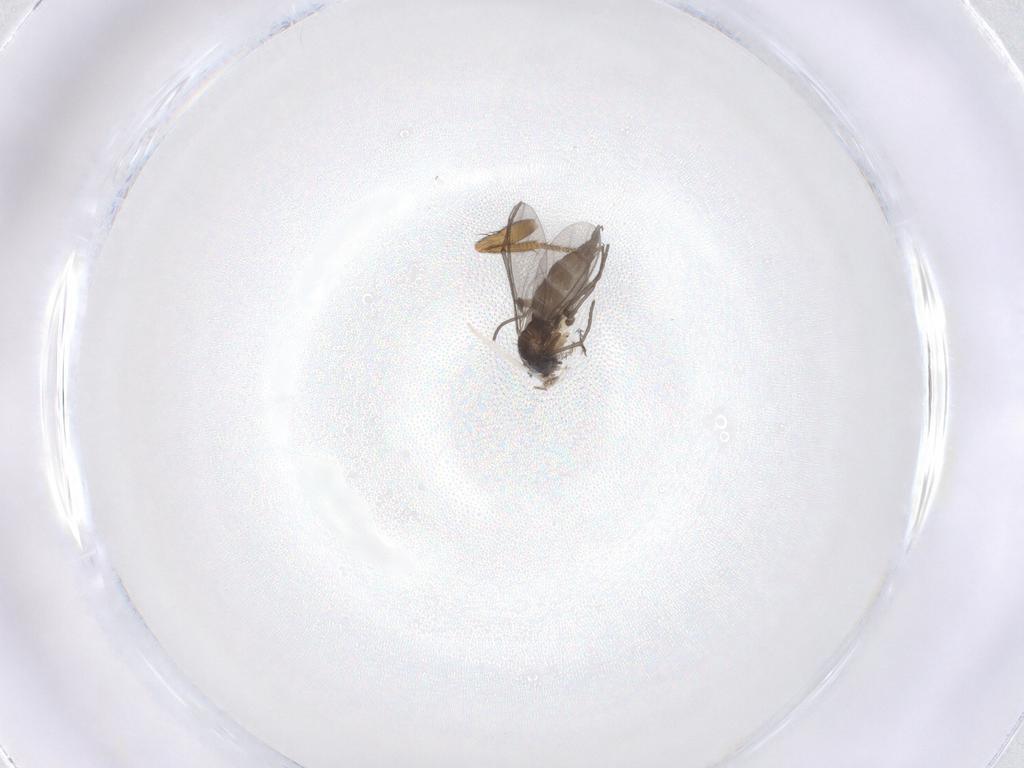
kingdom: Animalia
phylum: Arthropoda
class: Insecta
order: Diptera
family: Sciaridae
